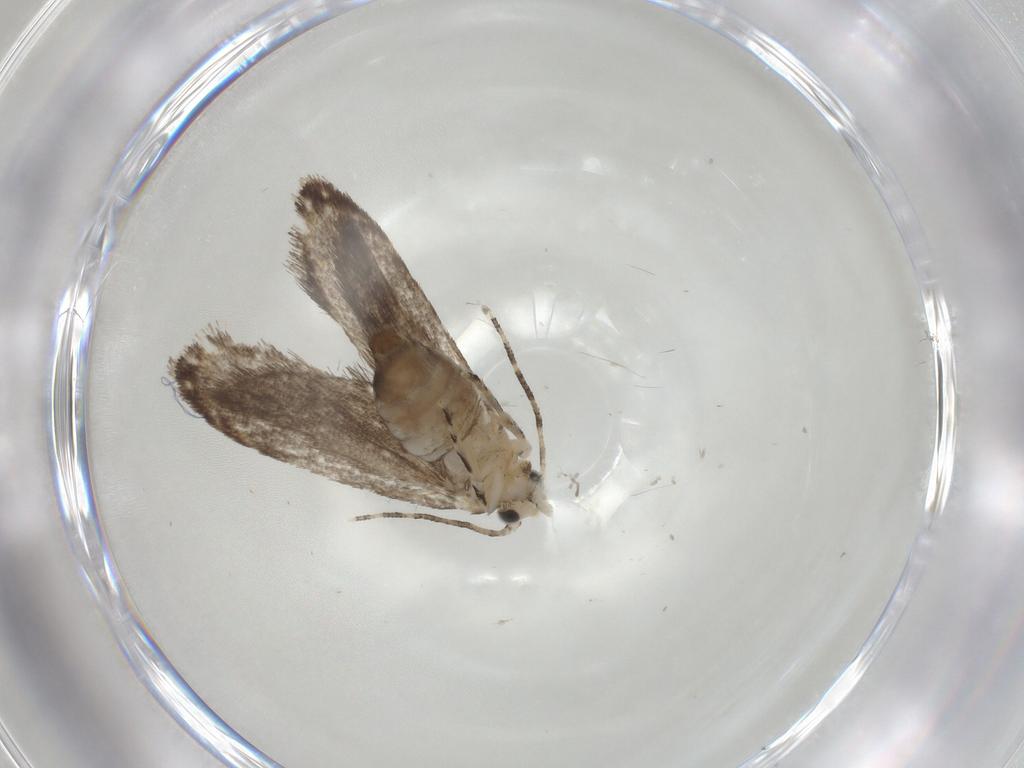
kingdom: Animalia
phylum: Arthropoda
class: Insecta
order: Lepidoptera
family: Tineidae
